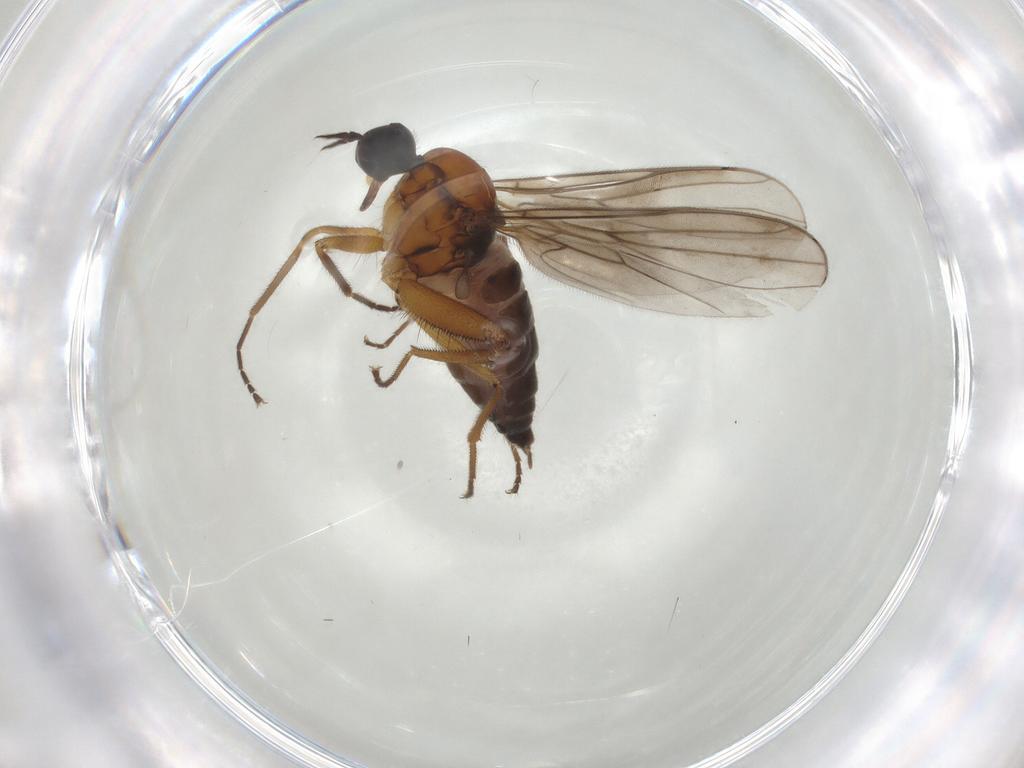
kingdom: Animalia
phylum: Arthropoda
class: Insecta
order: Diptera
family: Hybotidae
